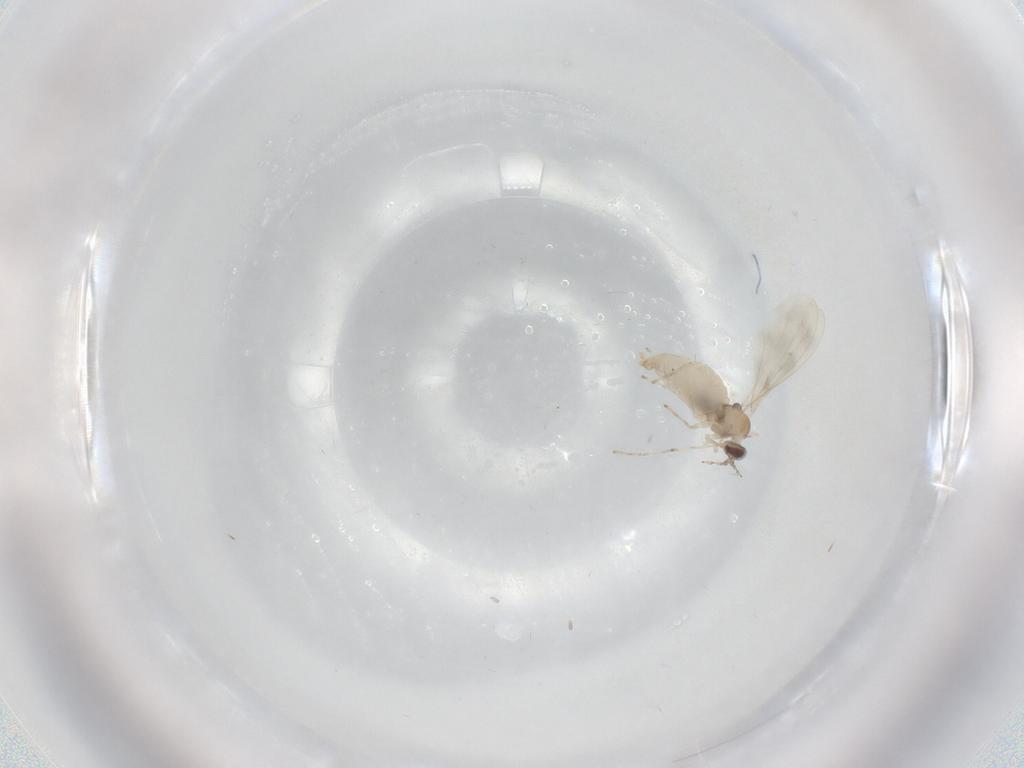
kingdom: Animalia
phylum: Arthropoda
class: Insecta
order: Diptera
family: Cecidomyiidae
